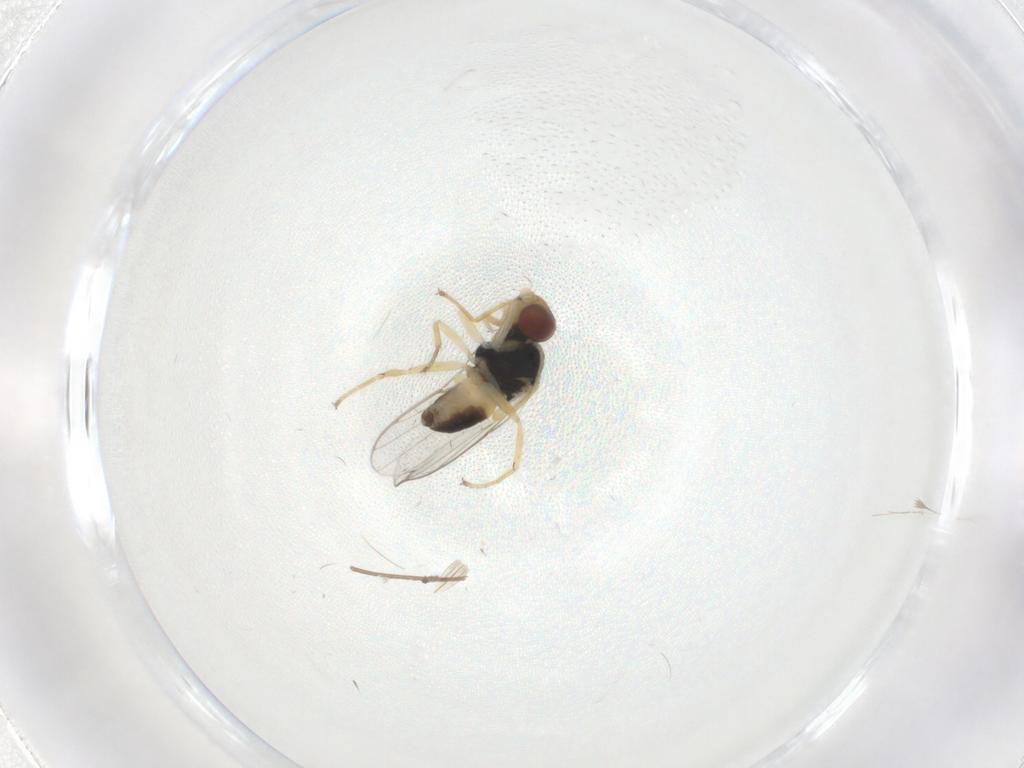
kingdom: Animalia
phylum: Arthropoda
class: Insecta
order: Diptera
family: Chloropidae
